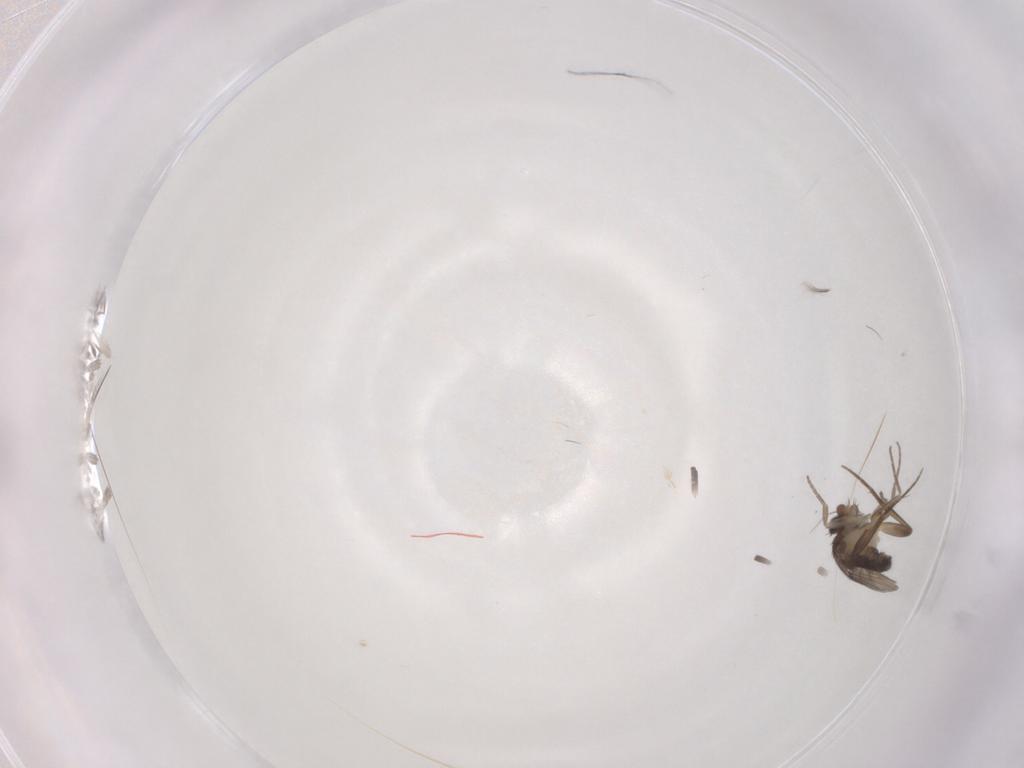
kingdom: Animalia
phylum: Arthropoda
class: Insecta
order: Diptera
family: Phoridae
